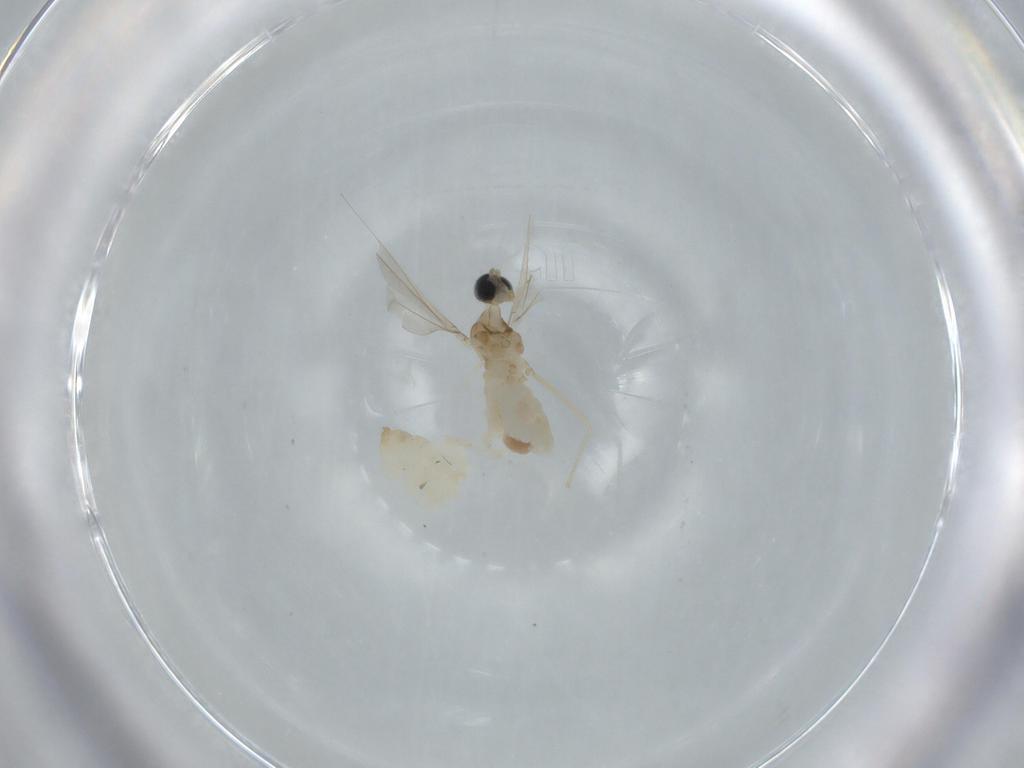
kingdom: Animalia
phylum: Arthropoda
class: Insecta
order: Diptera
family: Cecidomyiidae
